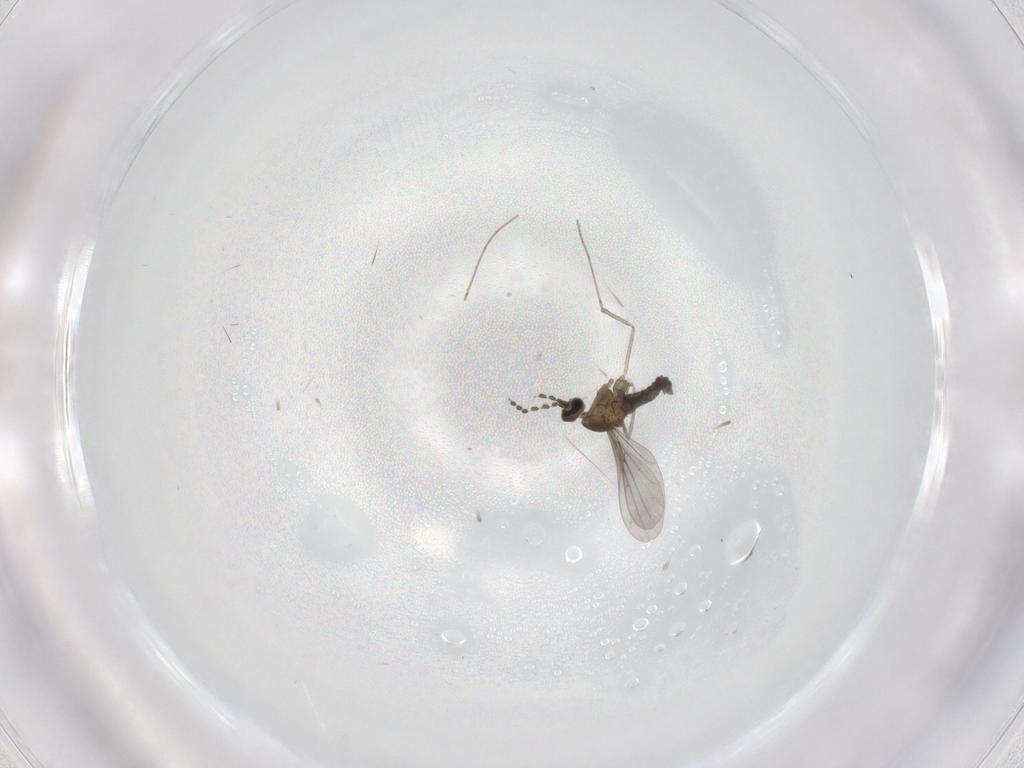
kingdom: Animalia
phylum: Arthropoda
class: Insecta
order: Diptera
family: Cecidomyiidae
